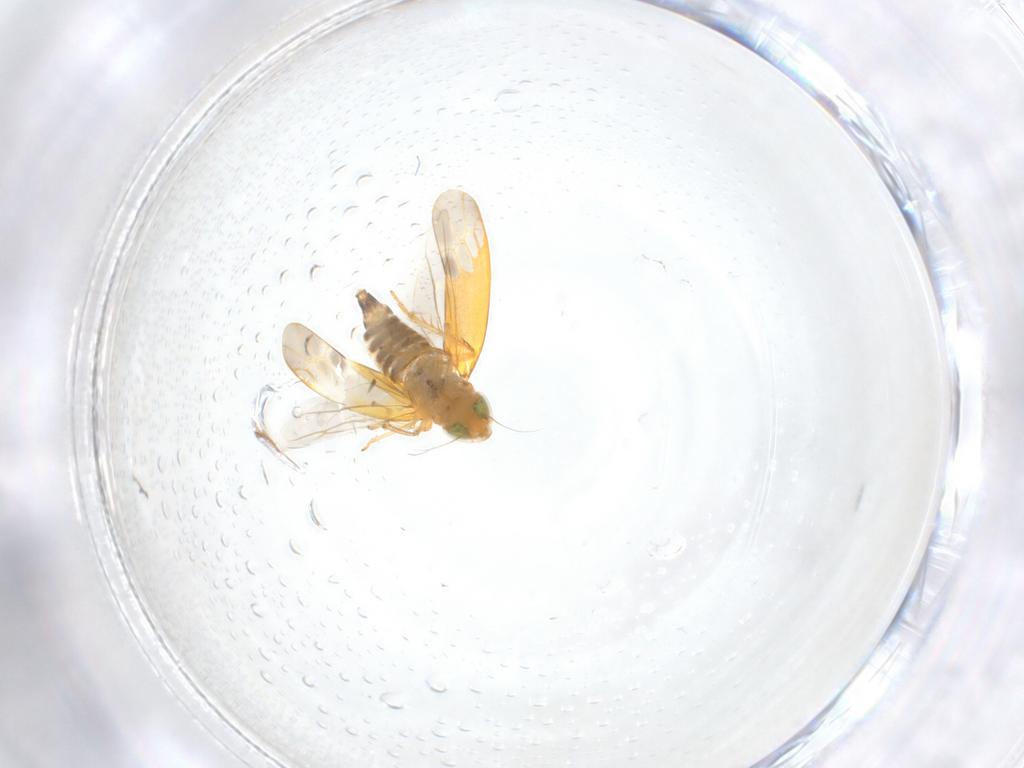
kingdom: Animalia
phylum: Arthropoda
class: Insecta
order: Hemiptera
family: Cicadellidae
